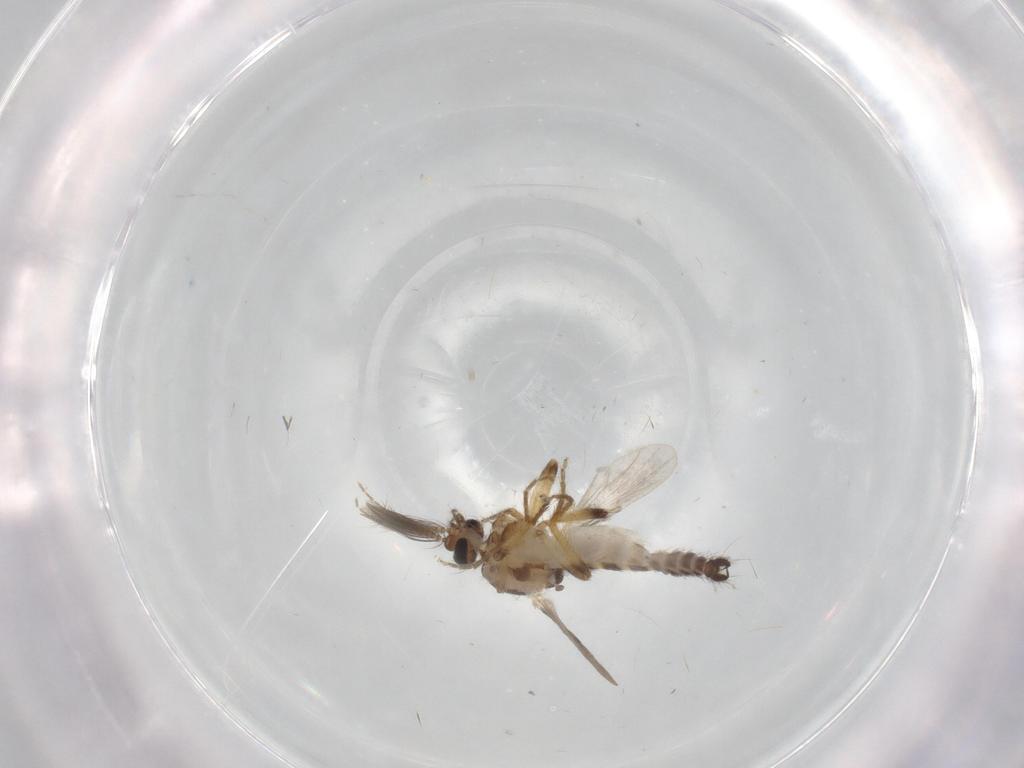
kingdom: Animalia
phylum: Arthropoda
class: Insecta
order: Diptera
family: Ceratopogonidae
